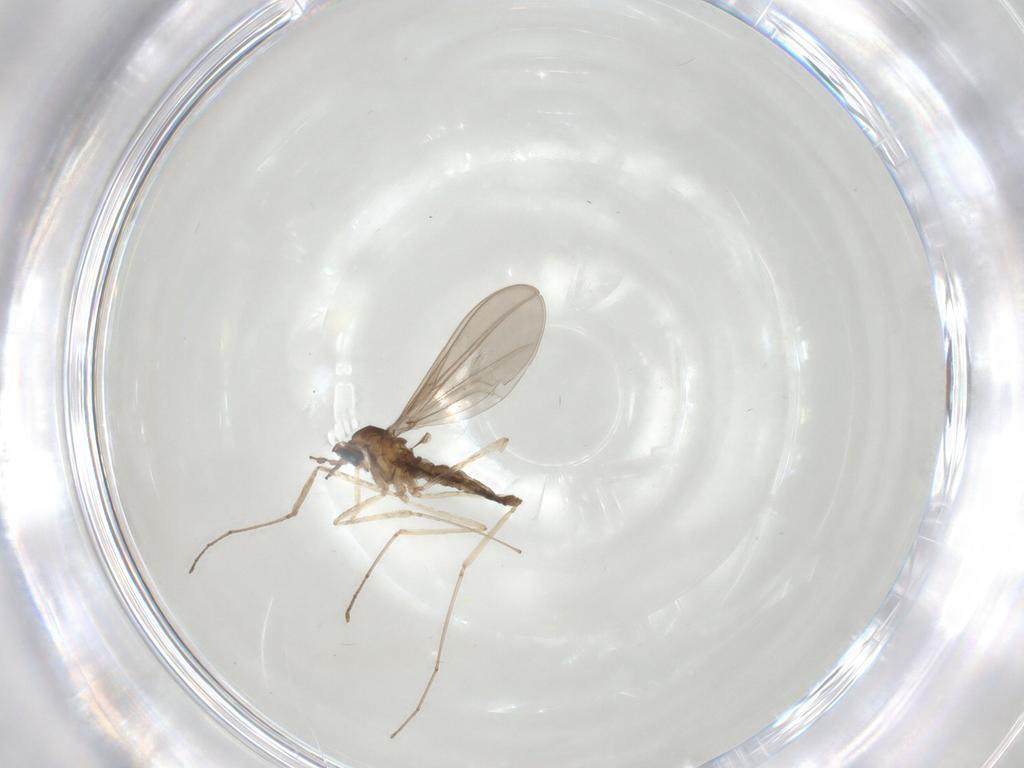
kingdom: Animalia
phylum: Arthropoda
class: Insecta
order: Diptera
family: Cecidomyiidae
